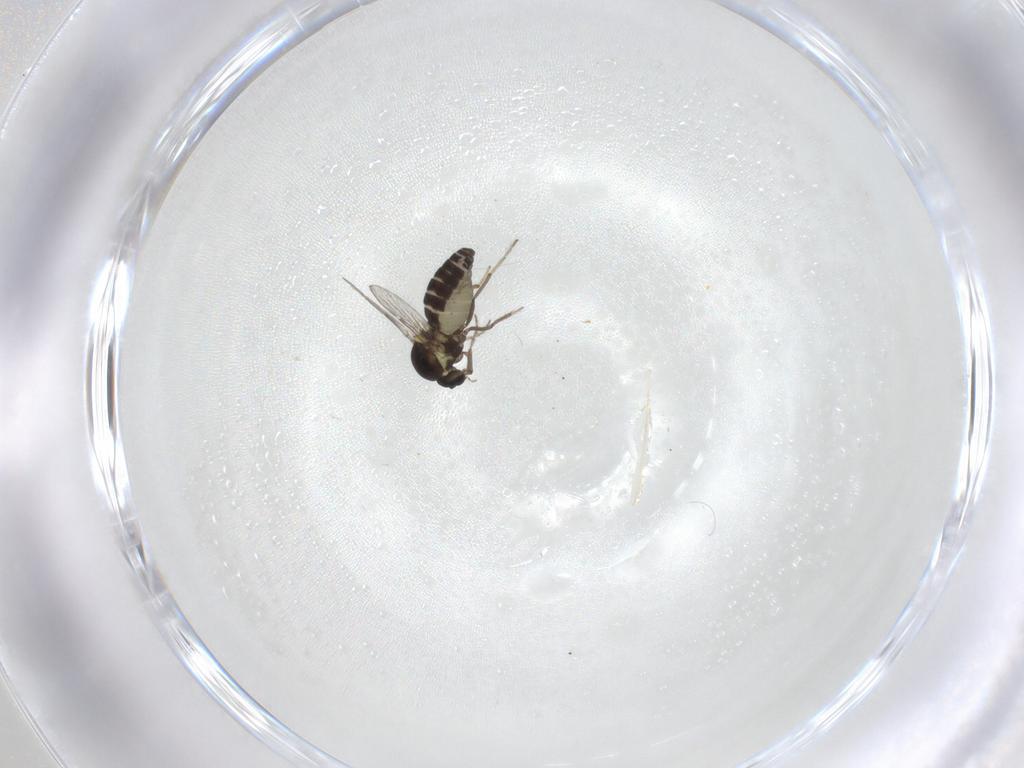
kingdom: Animalia
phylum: Arthropoda
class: Insecta
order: Diptera
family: Ceratopogonidae
